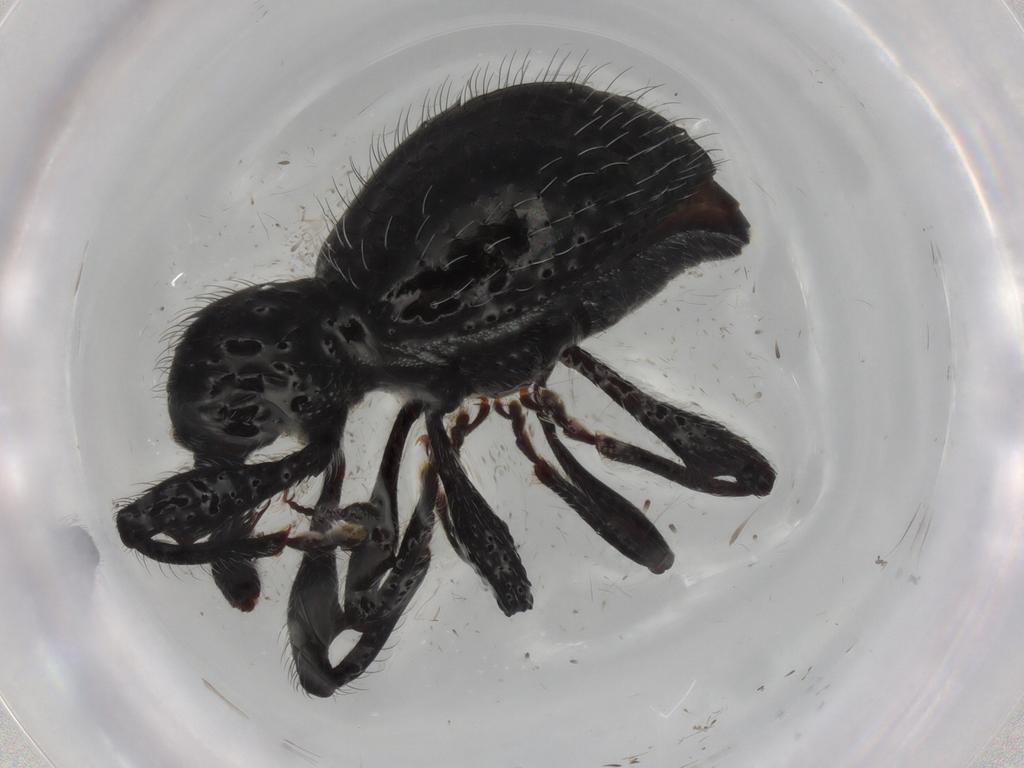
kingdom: Animalia
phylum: Arthropoda
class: Insecta
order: Coleoptera
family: Curculionidae
